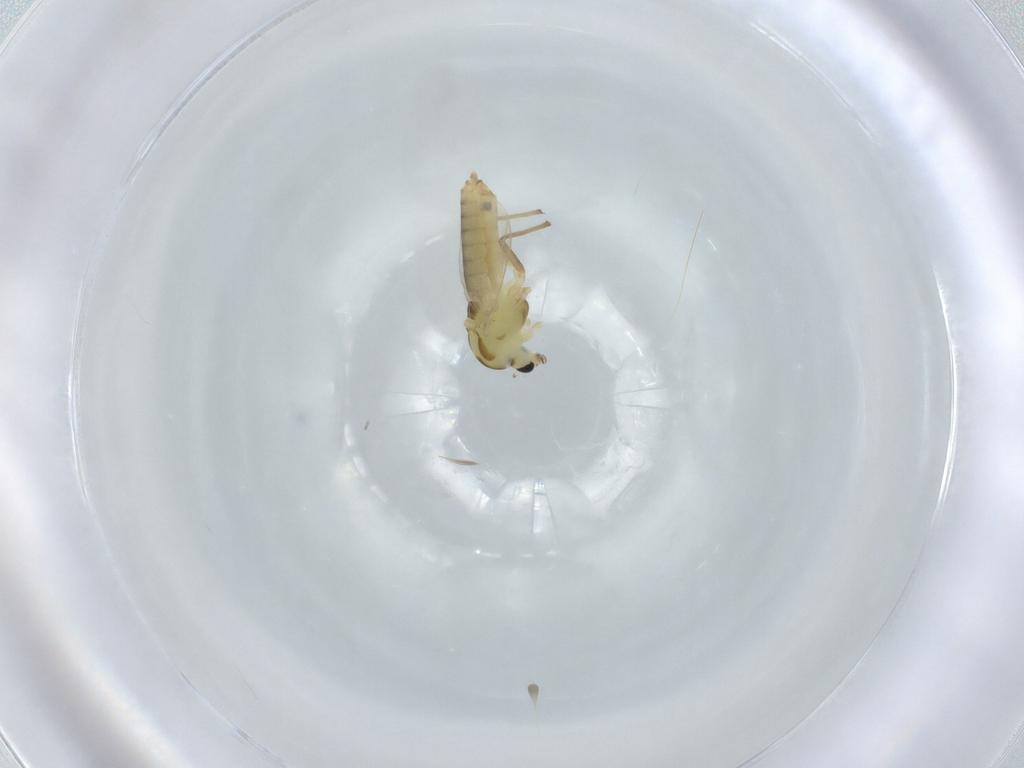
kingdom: Animalia
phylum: Arthropoda
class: Insecta
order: Diptera
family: Chironomidae
